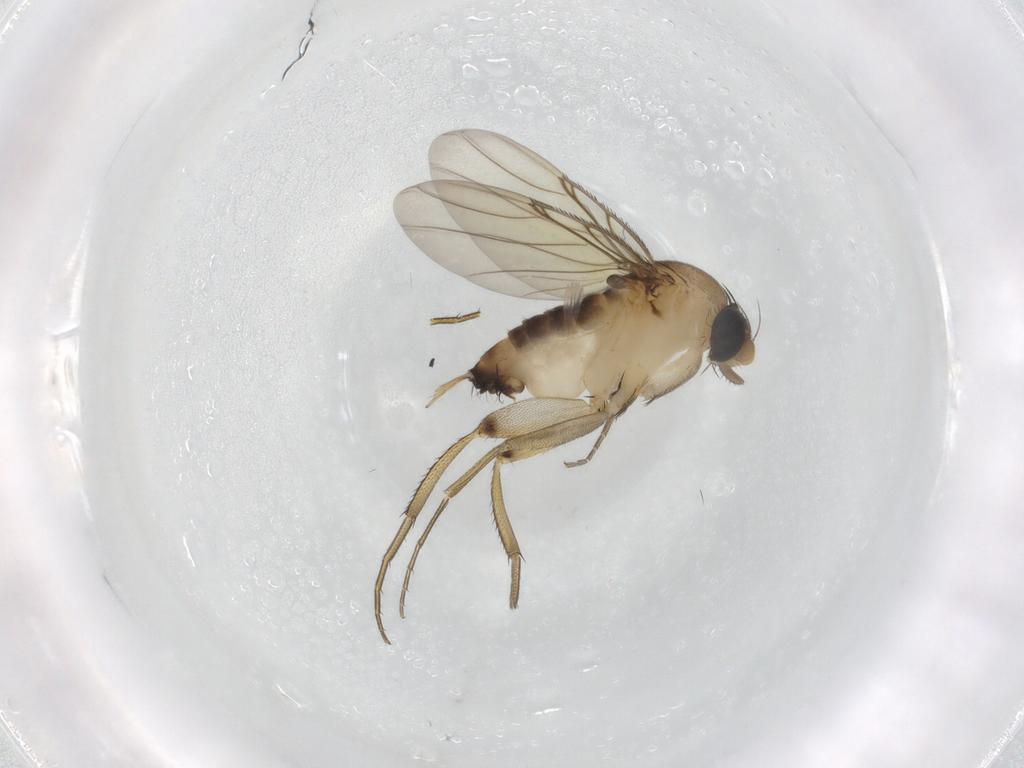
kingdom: Animalia
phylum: Arthropoda
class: Insecta
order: Diptera
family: Phoridae
